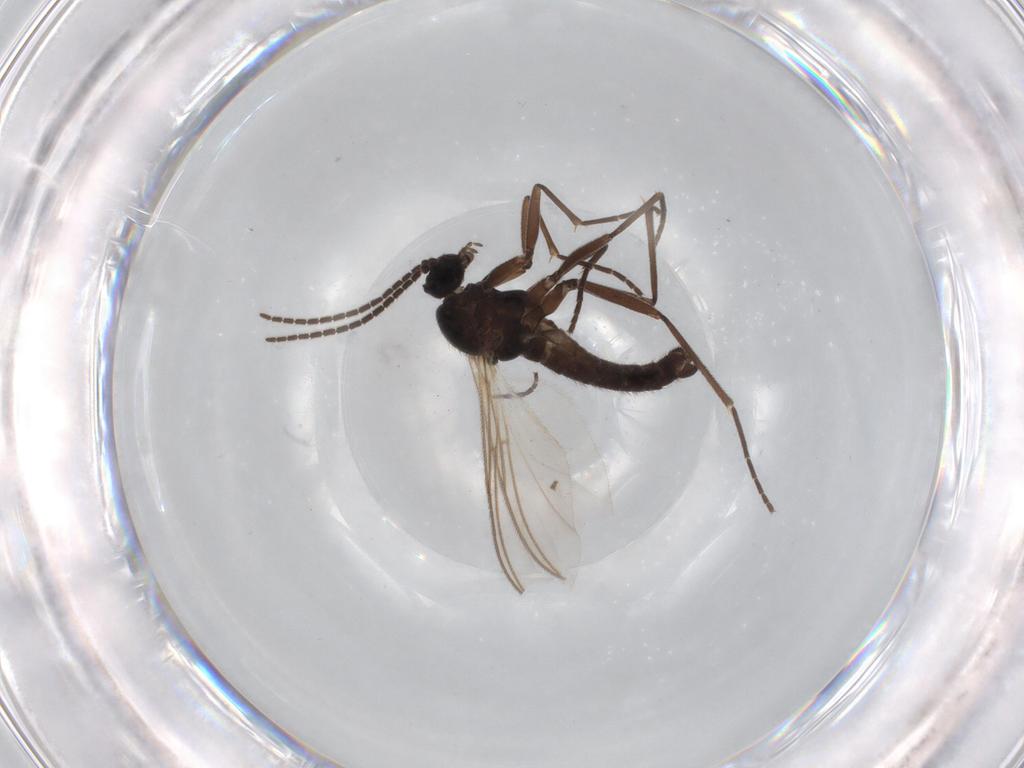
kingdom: Animalia
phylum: Arthropoda
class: Insecta
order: Diptera
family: Sciaridae
